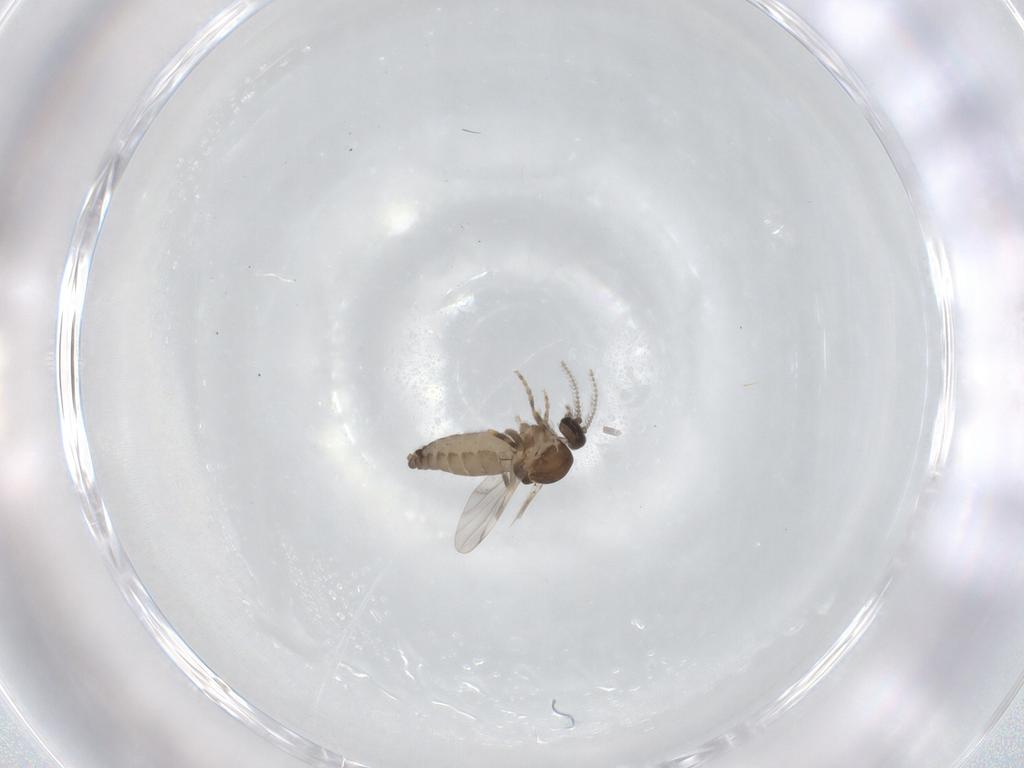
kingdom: Animalia
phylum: Arthropoda
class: Insecta
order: Diptera
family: Ceratopogonidae
